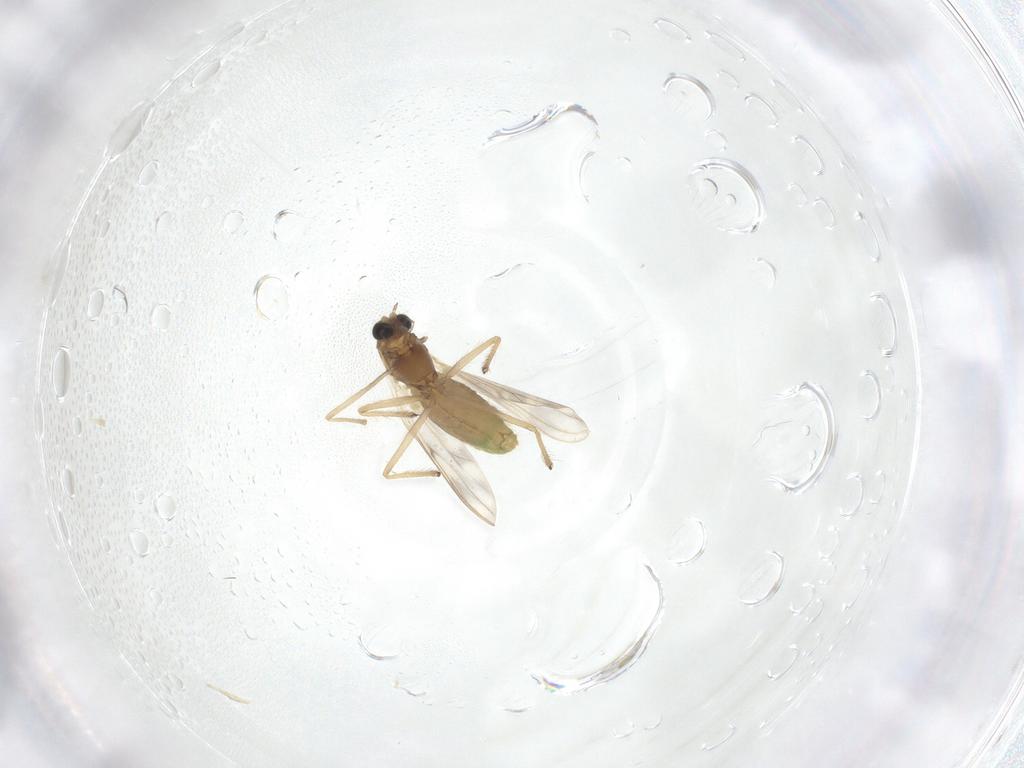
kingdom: Animalia
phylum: Arthropoda
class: Insecta
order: Diptera
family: Chironomidae
